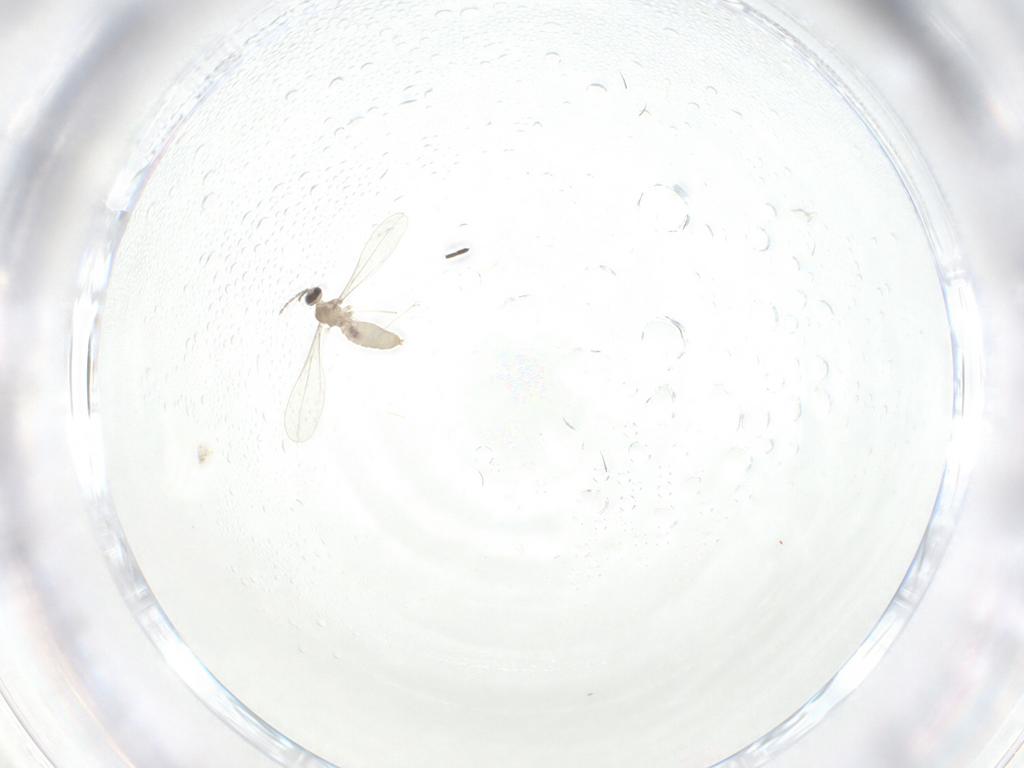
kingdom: Animalia
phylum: Arthropoda
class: Insecta
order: Diptera
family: Cecidomyiidae
